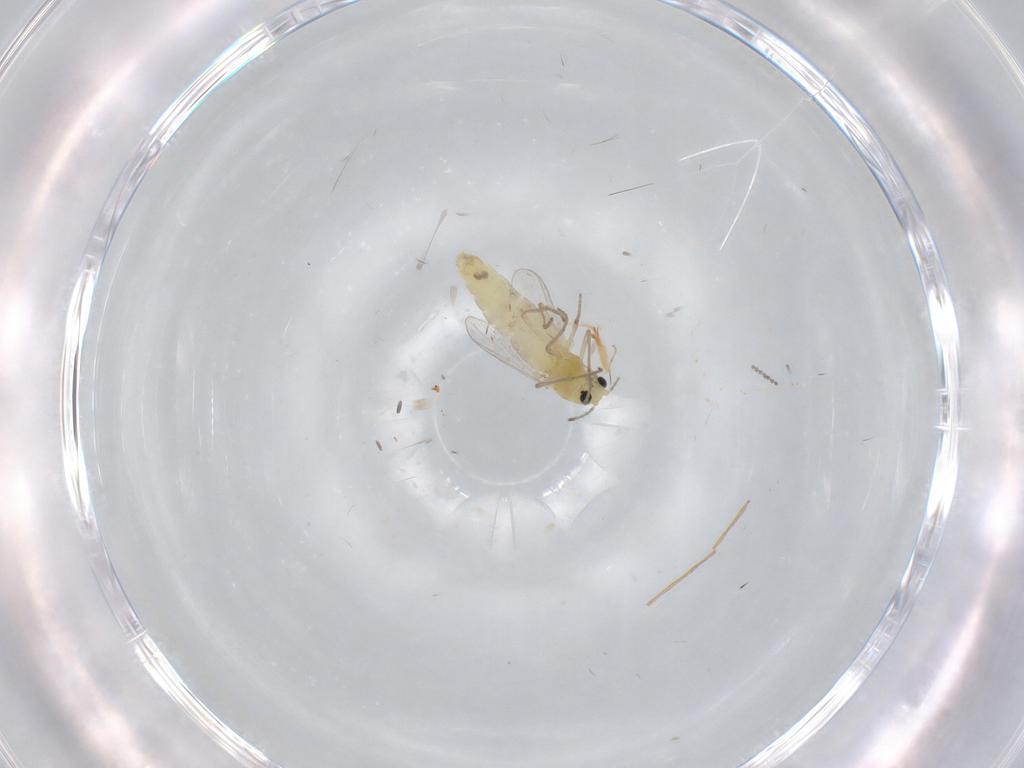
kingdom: Animalia
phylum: Arthropoda
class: Insecta
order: Diptera
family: Chironomidae
